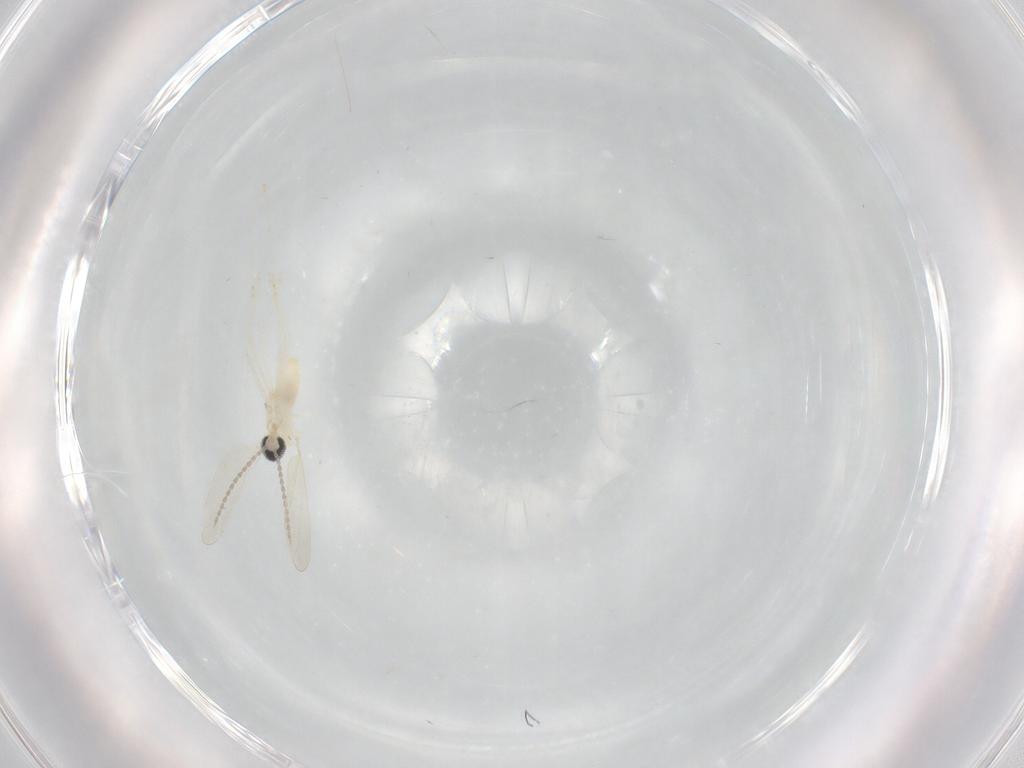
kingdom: Animalia
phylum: Arthropoda
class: Insecta
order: Diptera
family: Cecidomyiidae
